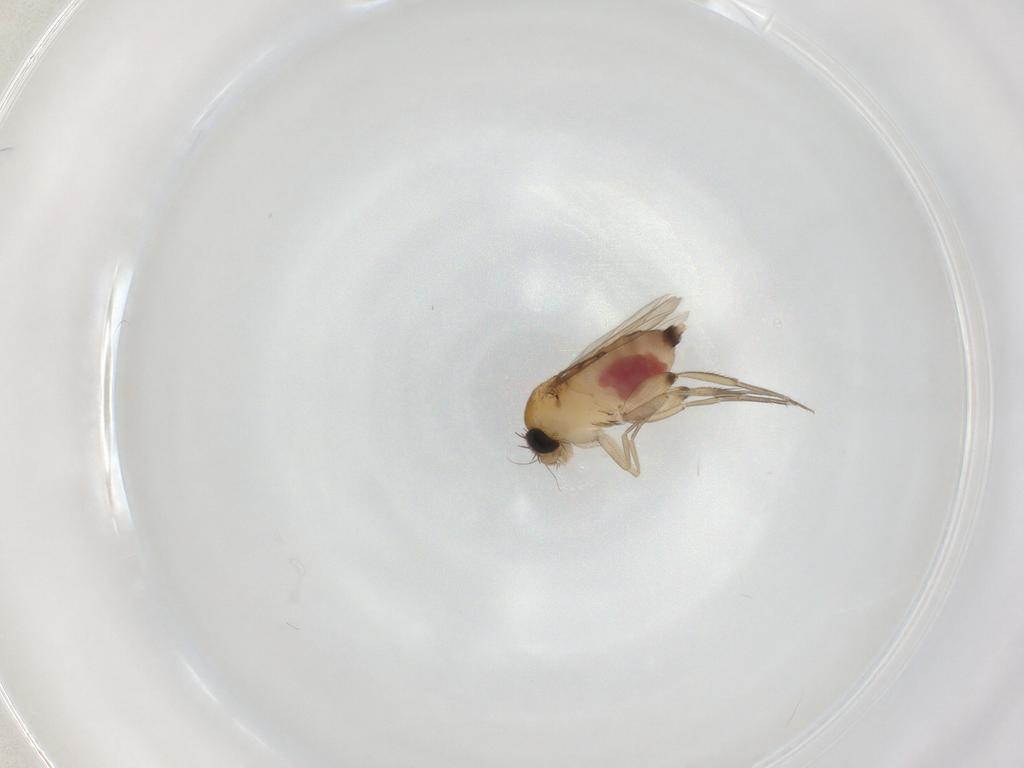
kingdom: Animalia
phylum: Arthropoda
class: Insecta
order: Diptera
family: Phoridae
